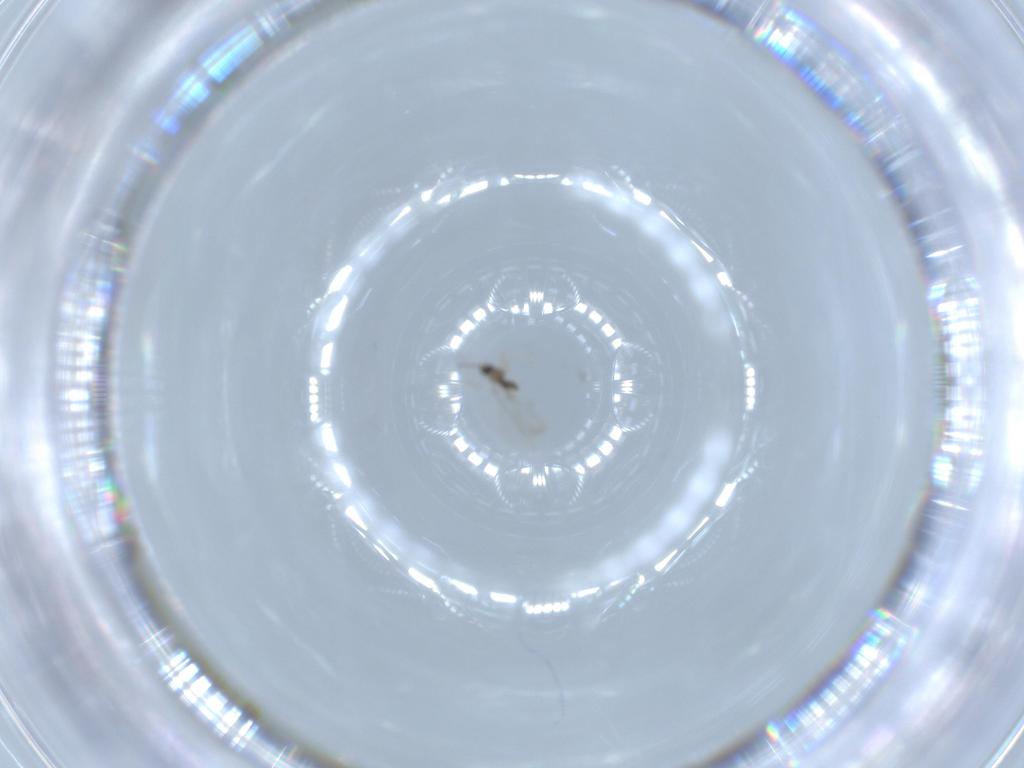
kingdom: Animalia
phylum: Arthropoda
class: Insecta
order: Diptera
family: Cecidomyiidae
